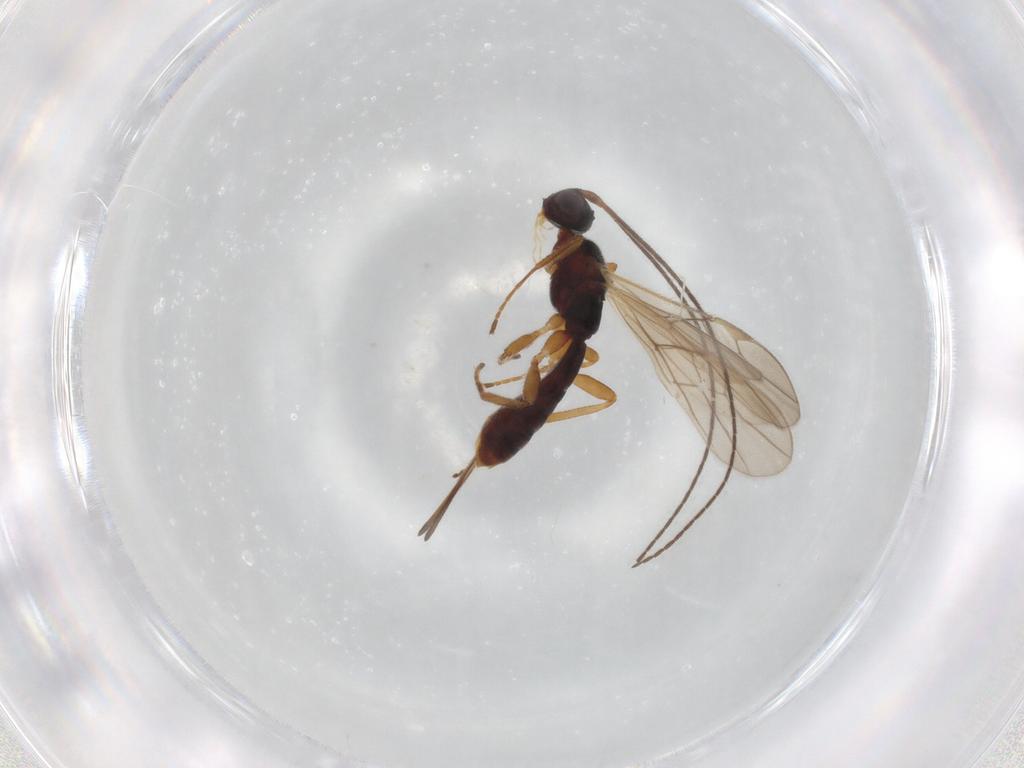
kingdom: Animalia
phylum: Arthropoda
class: Insecta
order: Hymenoptera
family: Braconidae
